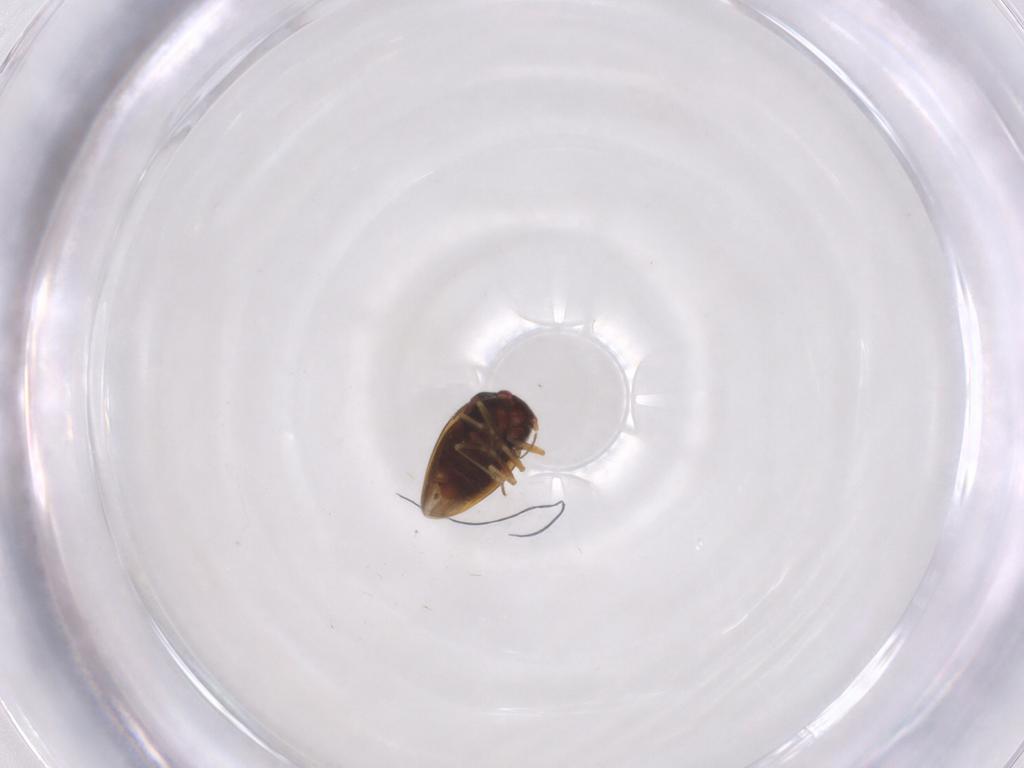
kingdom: Animalia
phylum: Arthropoda
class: Insecta
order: Hemiptera
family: Schizopteridae
